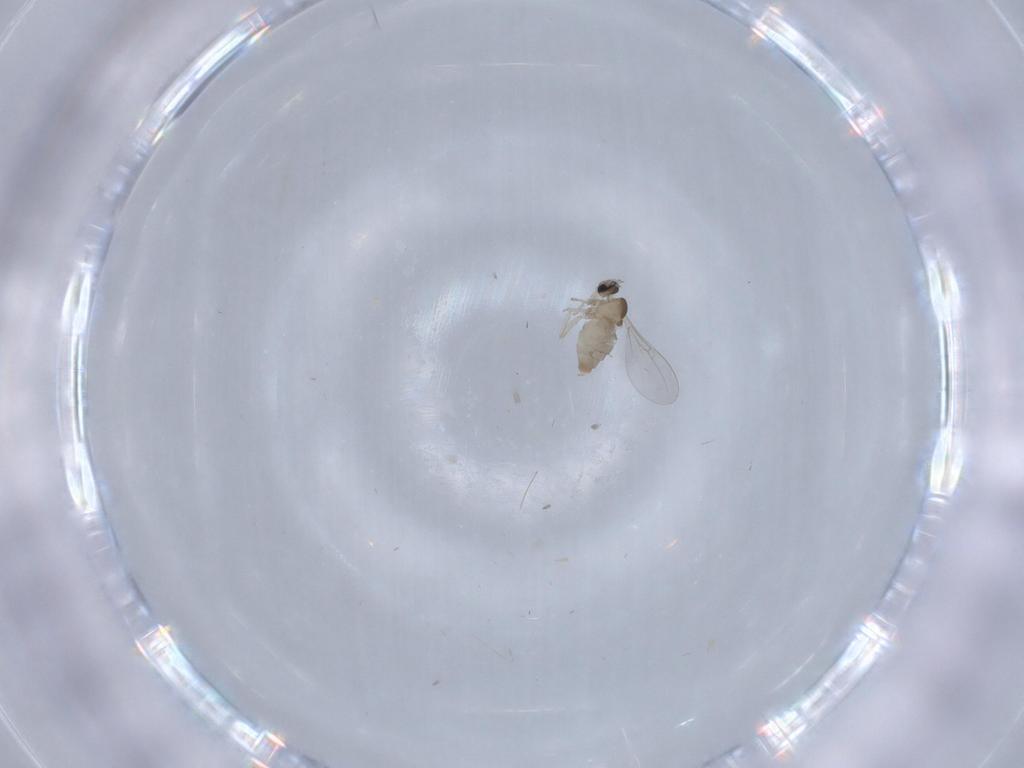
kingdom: Animalia
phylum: Arthropoda
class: Insecta
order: Diptera
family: Cecidomyiidae
